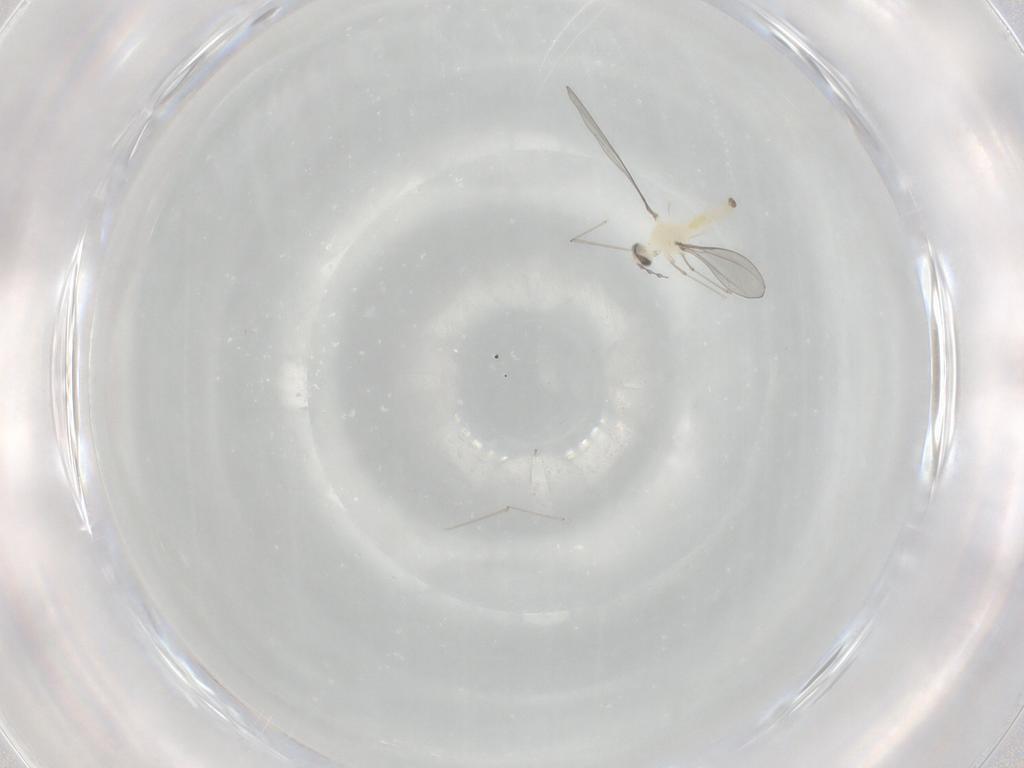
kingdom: Animalia
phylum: Arthropoda
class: Insecta
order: Diptera
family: Cecidomyiidae
